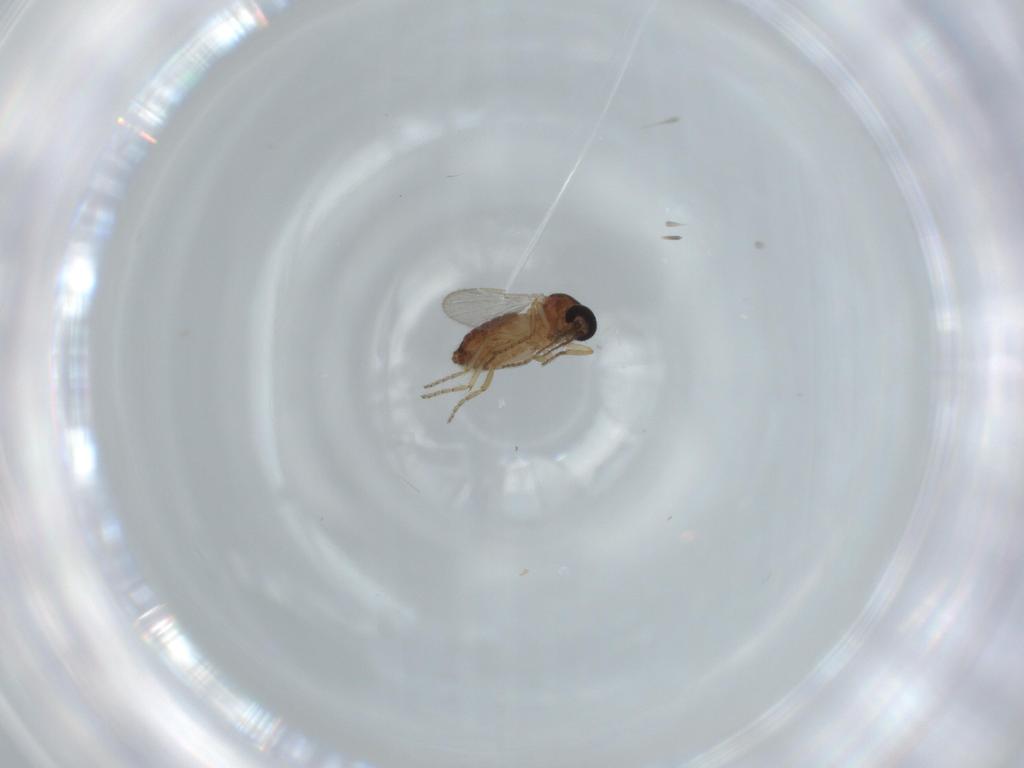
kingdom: Animalia
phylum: Arthropoda
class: Insecta
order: Diptera
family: Ceratopogonidae
